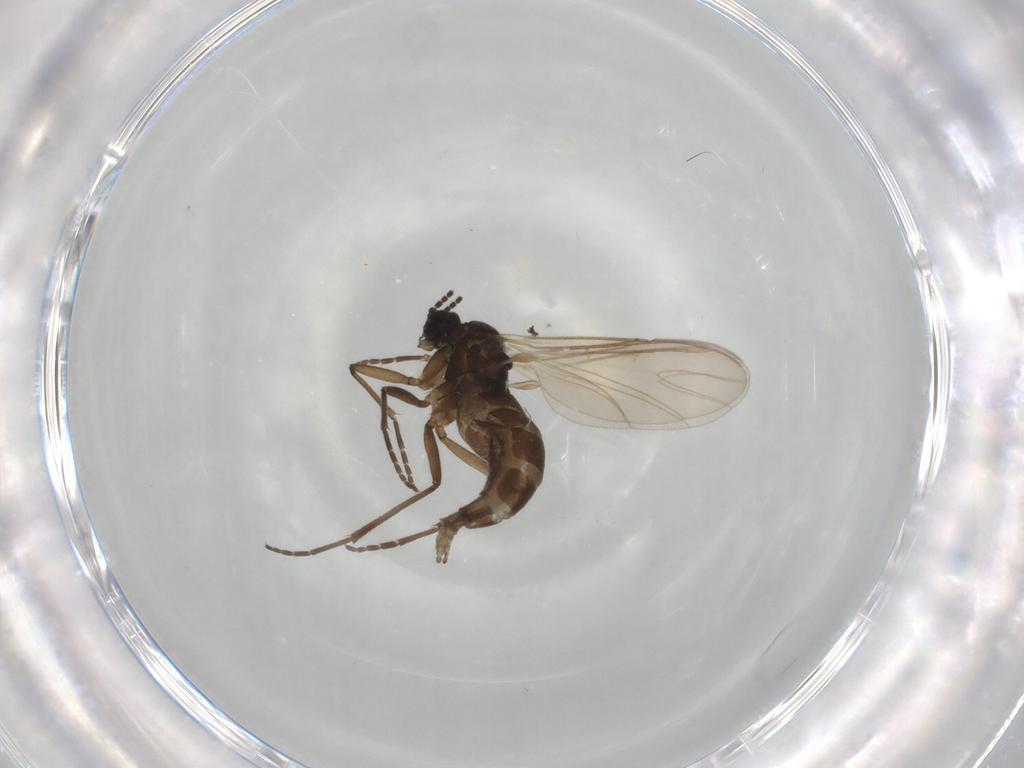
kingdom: Animalia
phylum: Arthropoda
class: Insecta
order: Diptera
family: Sciaridae
